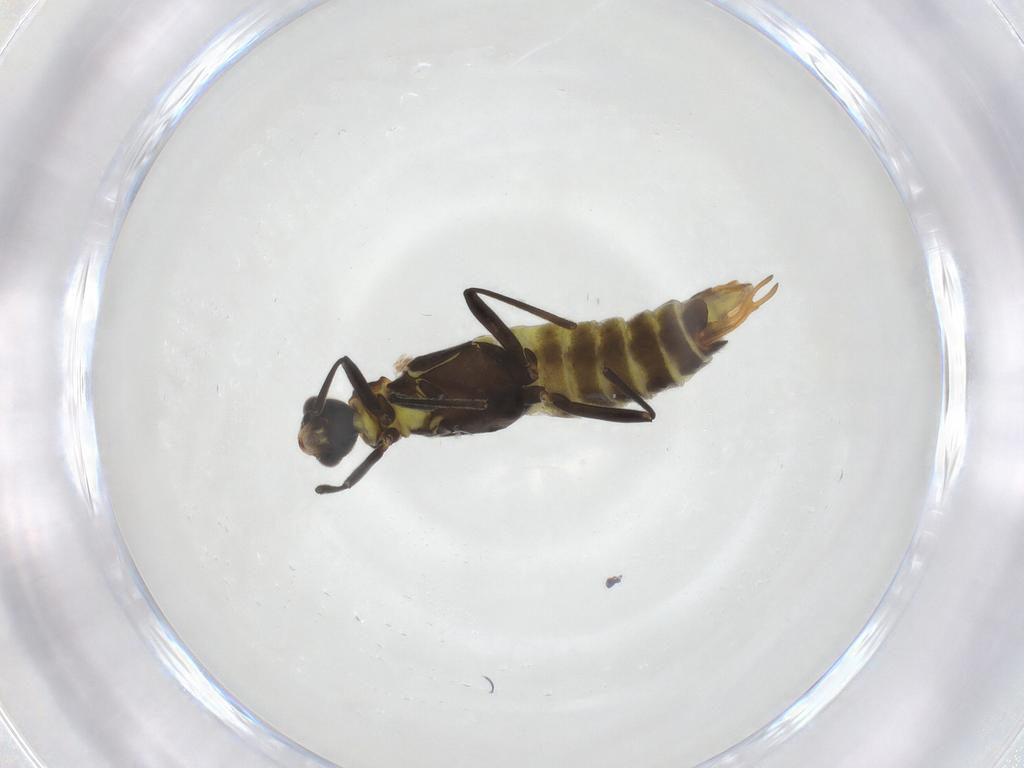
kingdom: Animalia
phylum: Arthropoda
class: Insecta
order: Coleoptera
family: Cantharidae
